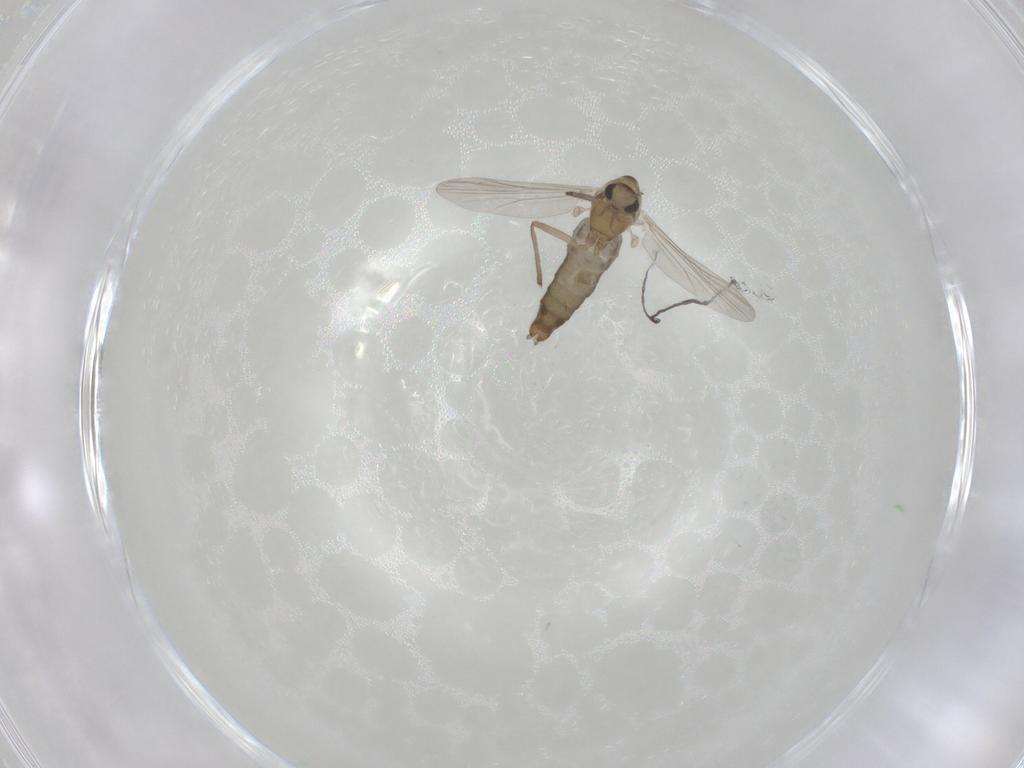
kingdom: Animalia
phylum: Arthropoda
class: Insecta
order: Diptera
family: Chironomidae
